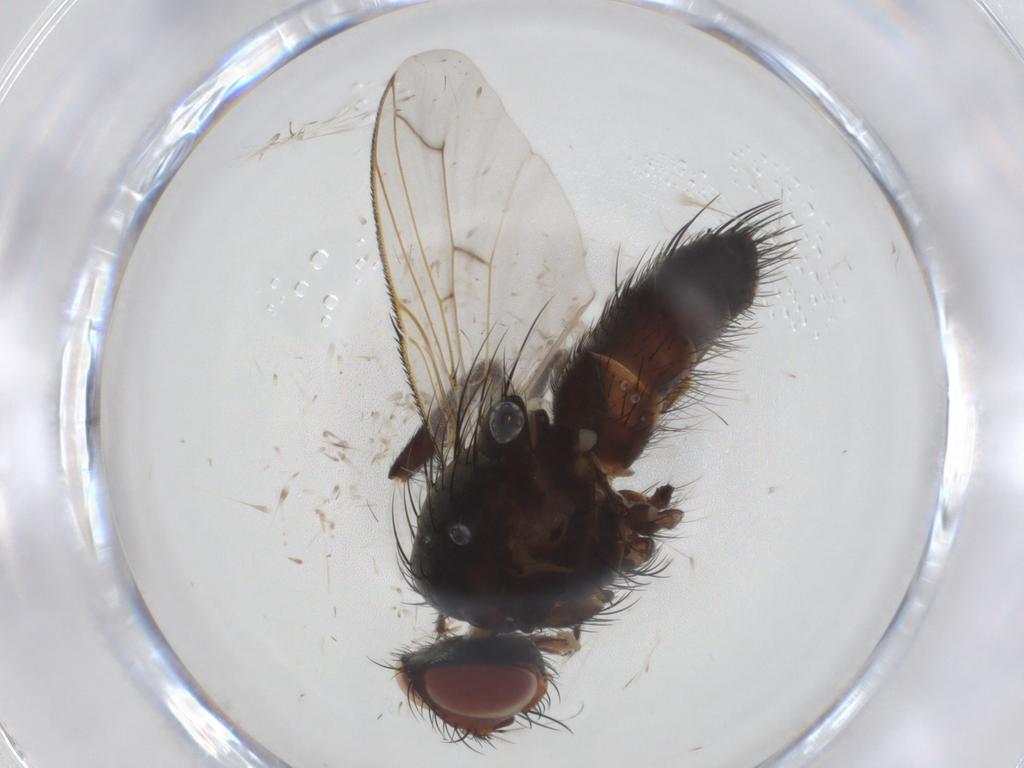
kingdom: Animalia
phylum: Arthropoda
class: Insecta
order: Diptera
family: Tachinidae
